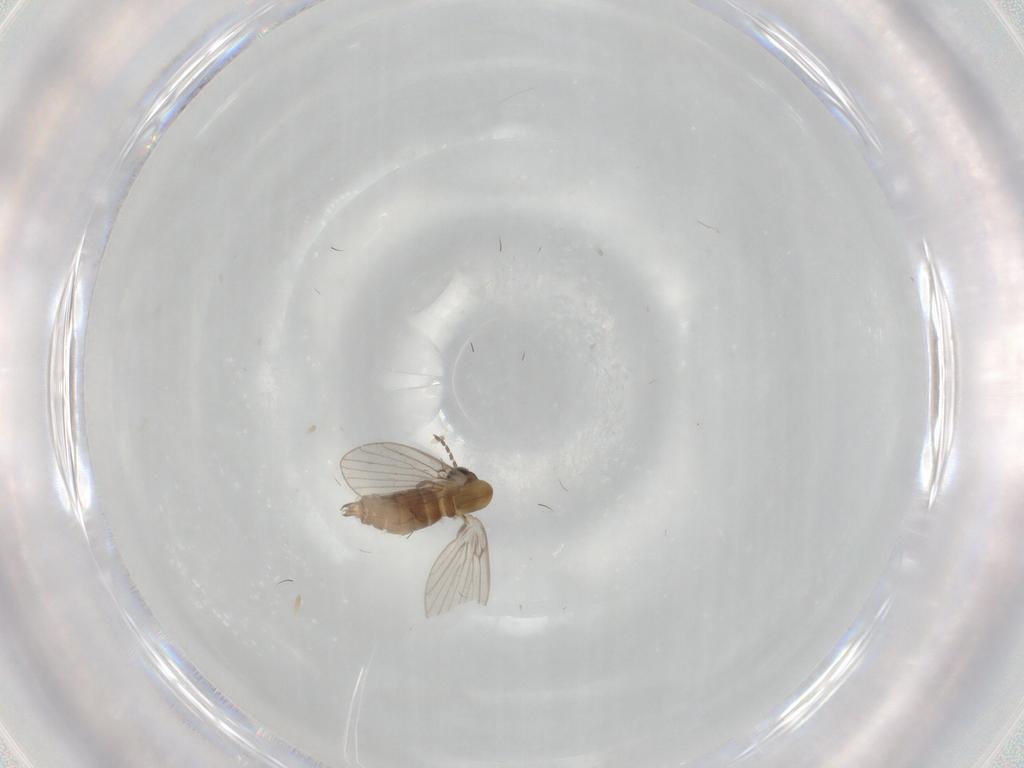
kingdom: Animalia
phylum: Arthropoda
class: Insecta
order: Diptera
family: Psychodidae
